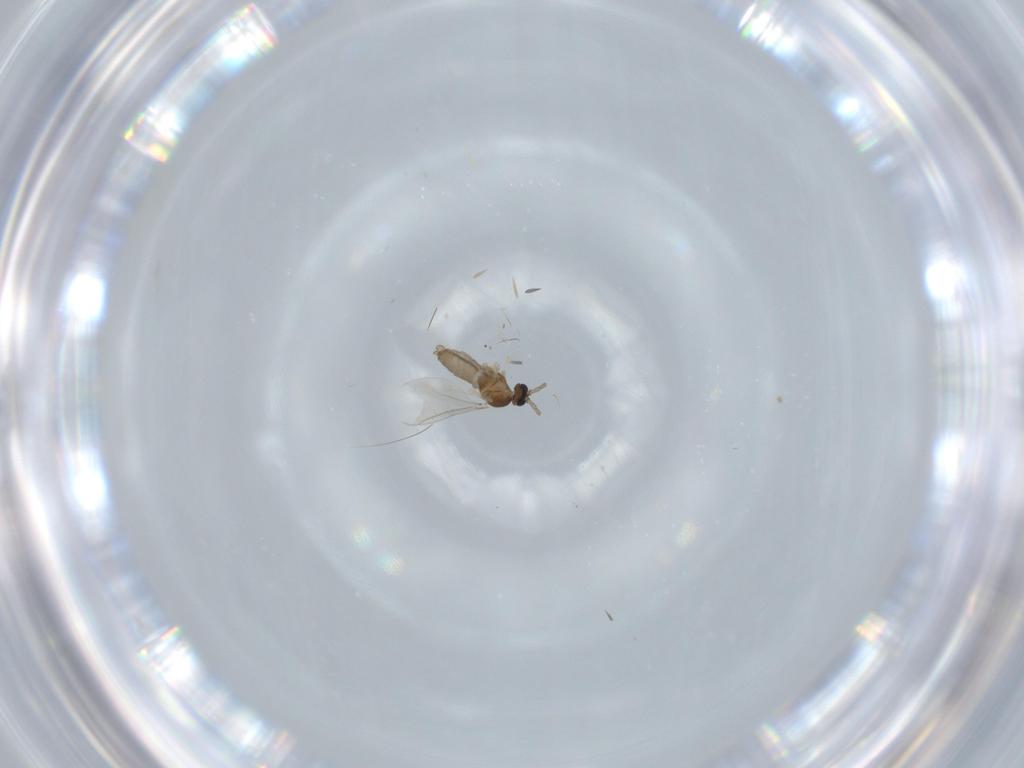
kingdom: Animalia
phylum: Arthropoda
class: Insecta
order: Diptera
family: Cecidomyiidae
